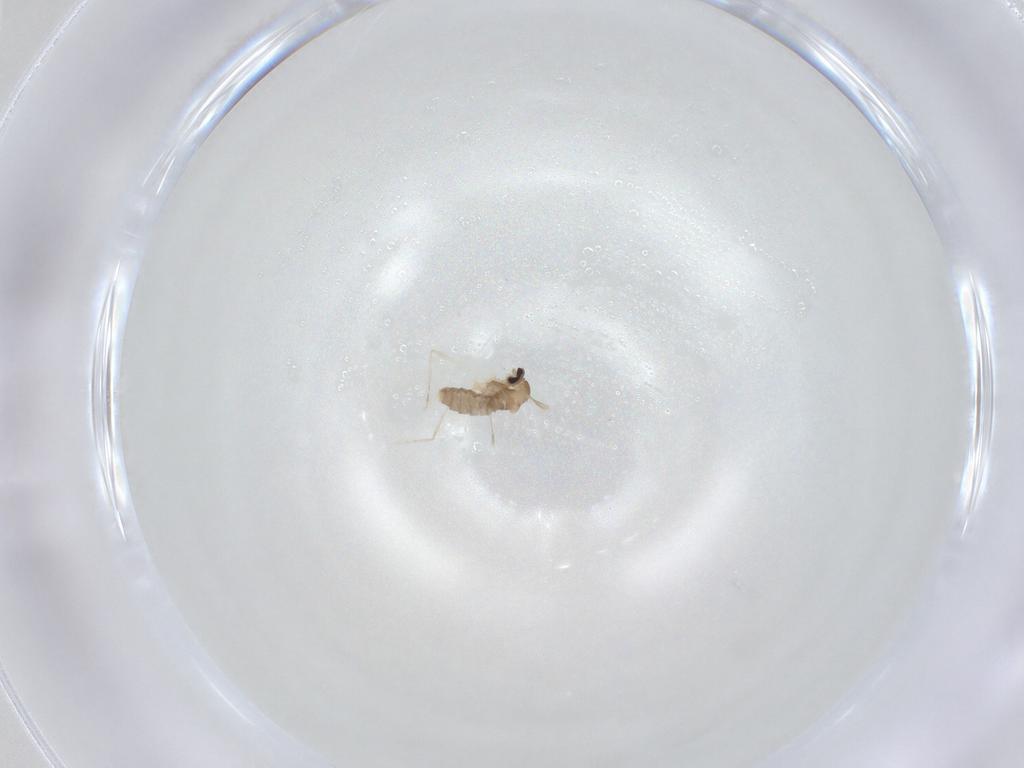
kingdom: Animalia
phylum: Arthropoda
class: Insecta
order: Diptera
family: Cecidomyiidae
